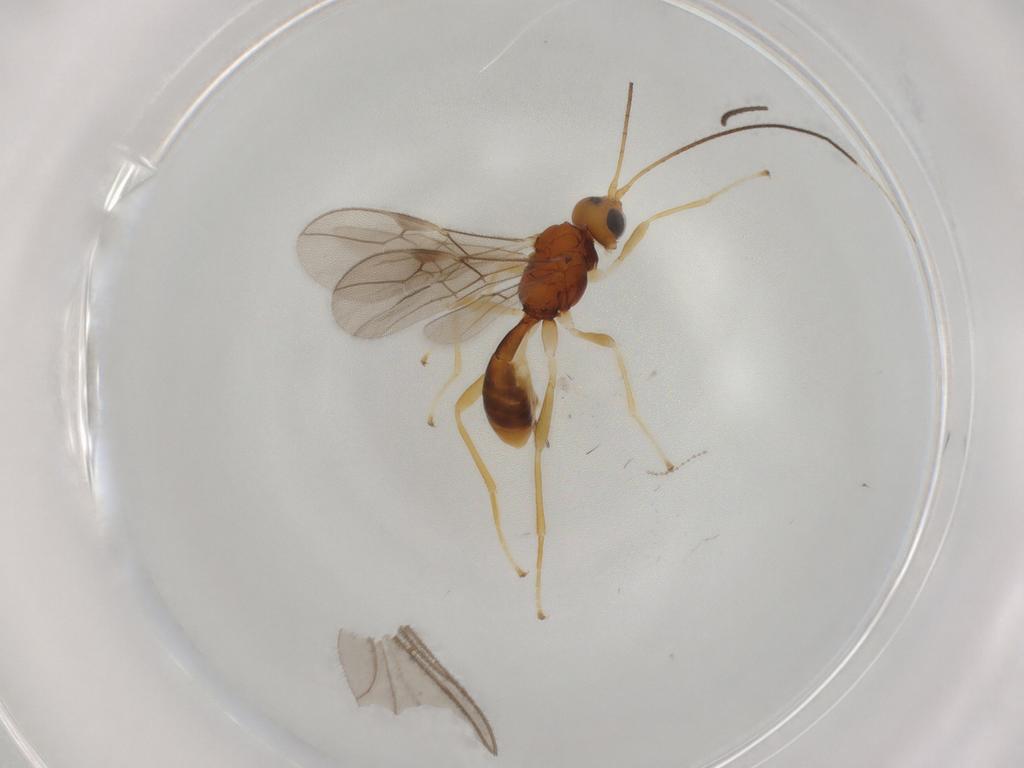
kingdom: Animalia
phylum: Arthropoda
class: Insecta
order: Hymenoptera
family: Braconidae
